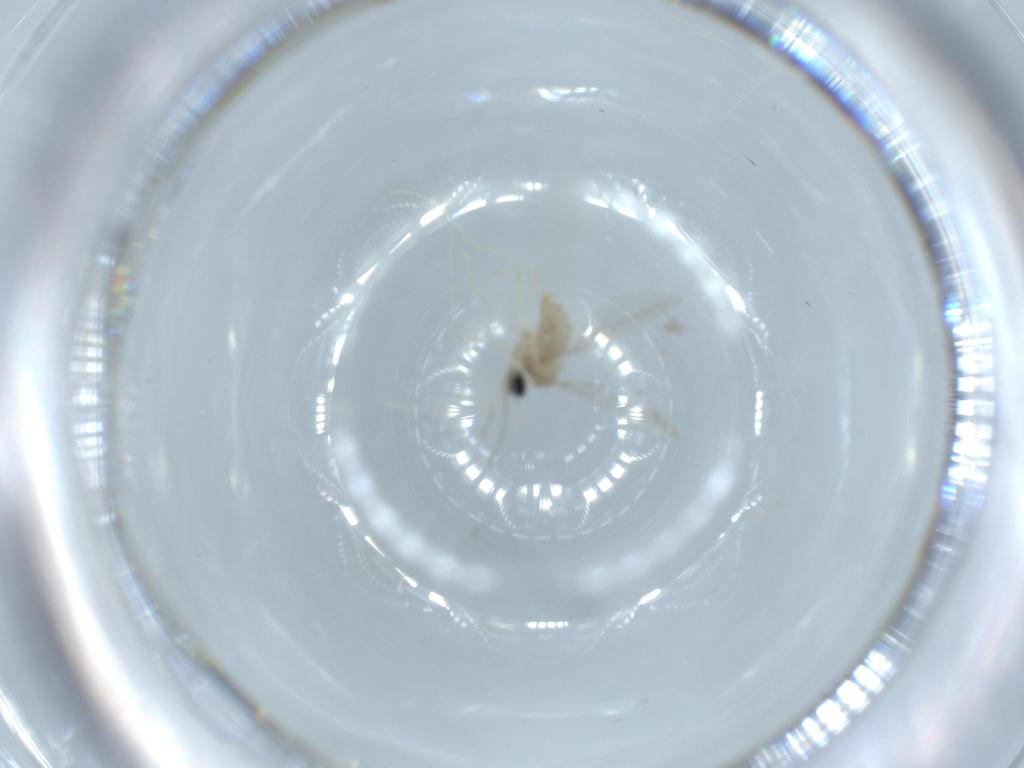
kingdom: Animalia
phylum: Arthropoda
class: Insecta
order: Diptera
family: Cecidomyiidae
